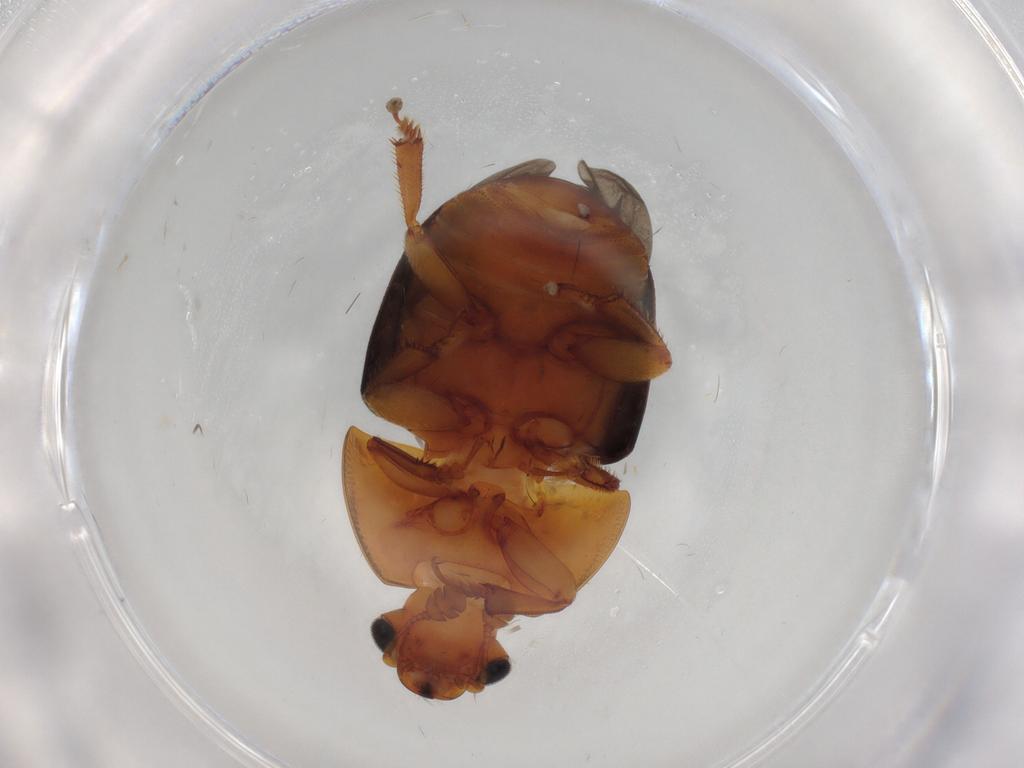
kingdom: Animalia
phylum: Arthropoda
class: Insecta
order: Coleoptera
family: Nitidulidae
